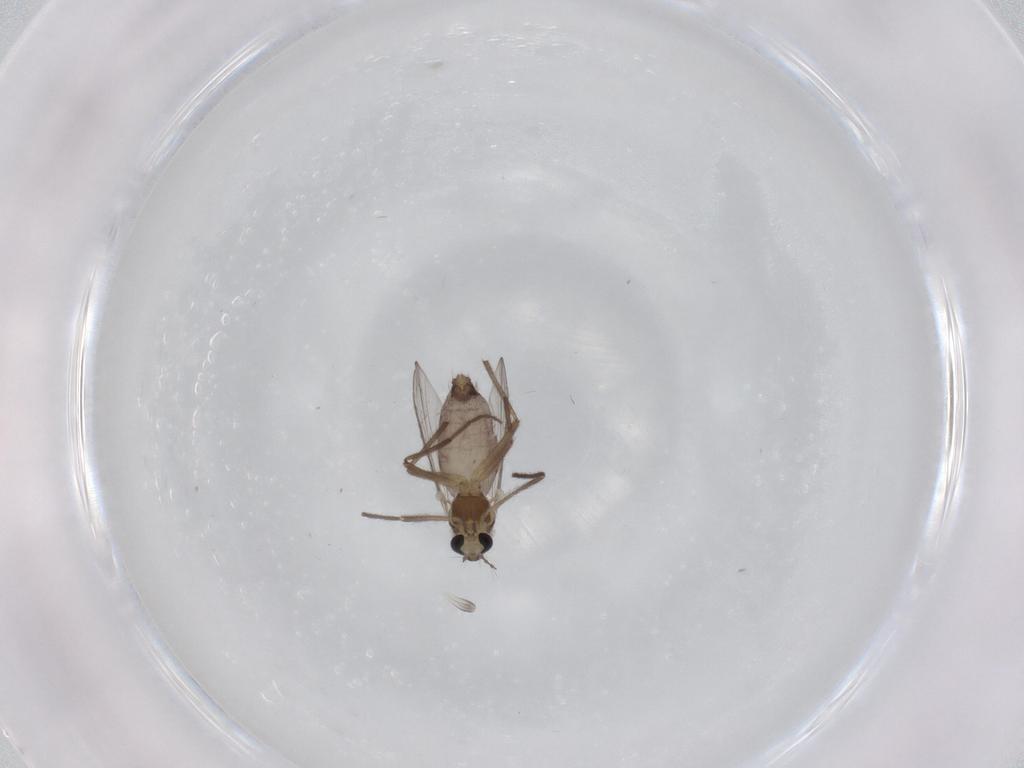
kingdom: Animalia
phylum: Arthropoda
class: Insecta
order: Diptera
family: Chironomidae
